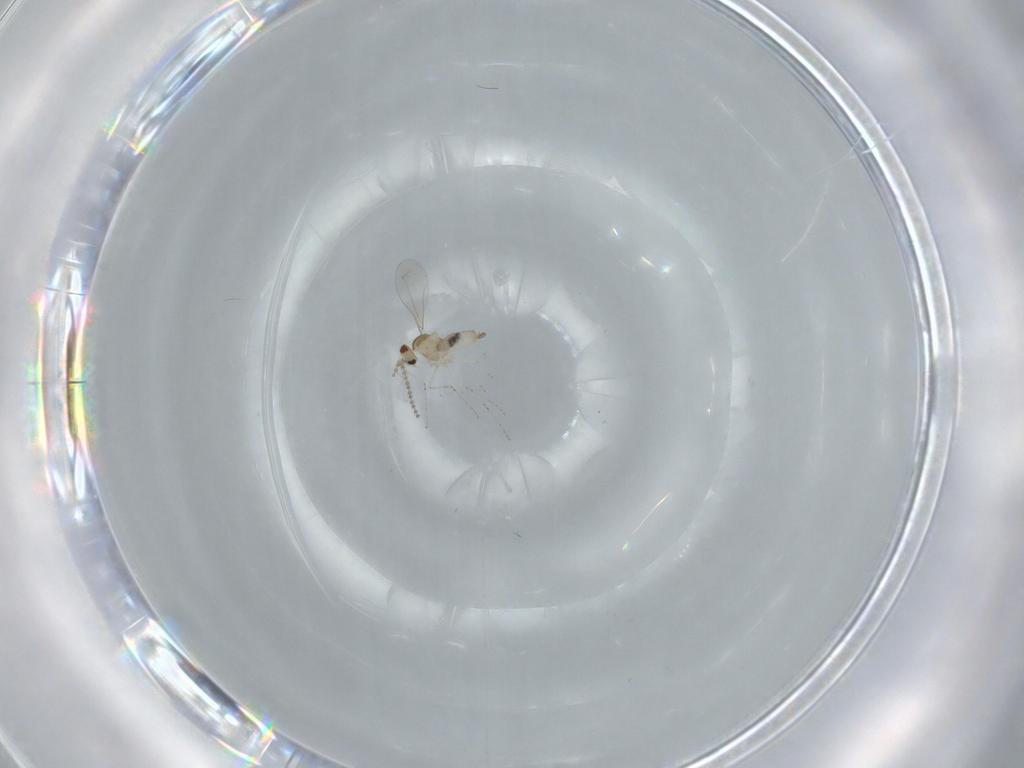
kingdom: Animalia
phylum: Arthropoda
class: Insecta
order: Diptera
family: Cecidomyiidae
